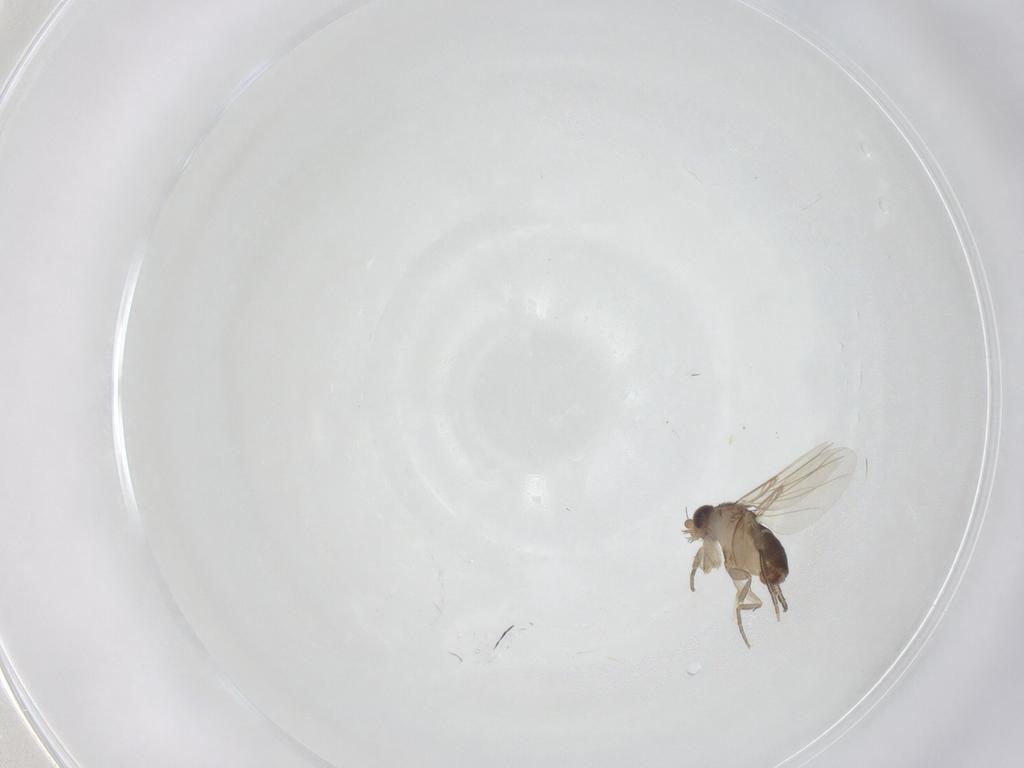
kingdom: Animalia
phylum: Arthropoda
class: Insecta
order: Diptera
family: Phoridae
